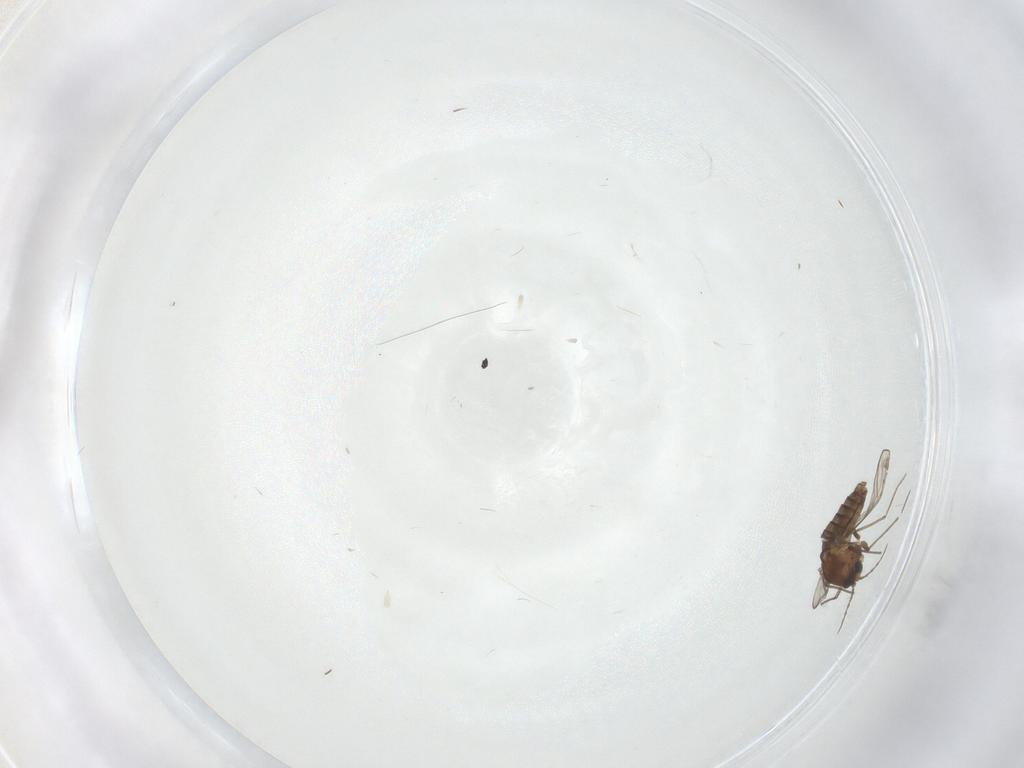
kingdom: Animalia
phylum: Arthropoda
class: Insecta
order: Diptera
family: Chironomidae
